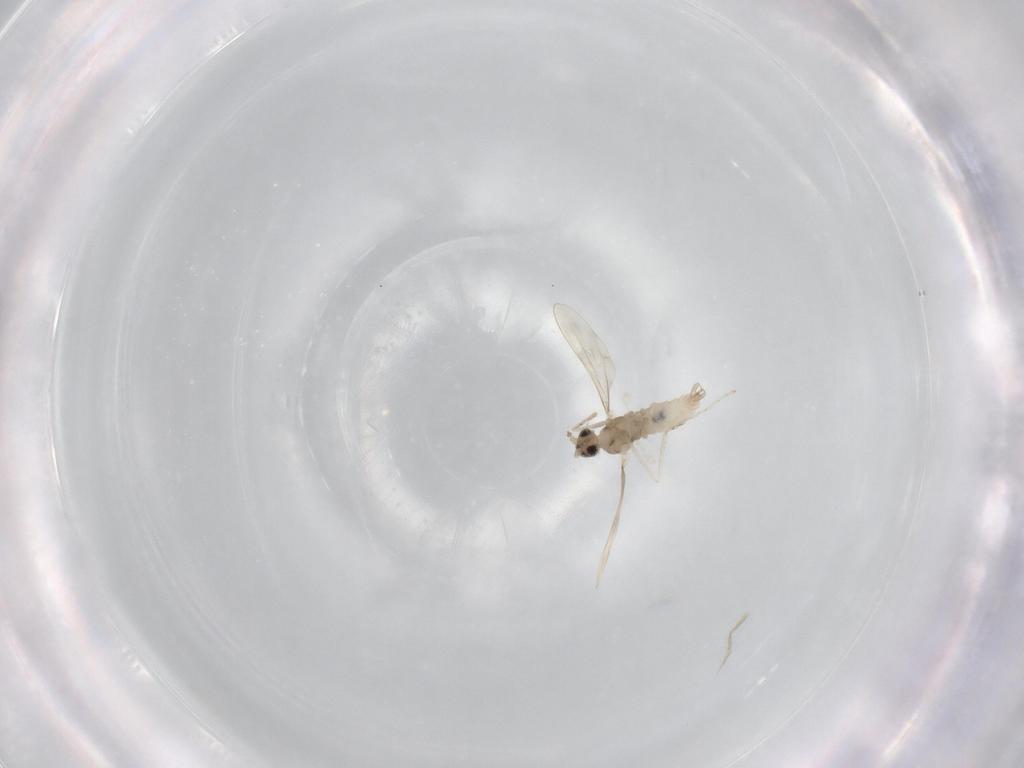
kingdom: Animalia
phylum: Arthropoda
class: Insecta
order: Diptera
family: Cecidomyiidae
